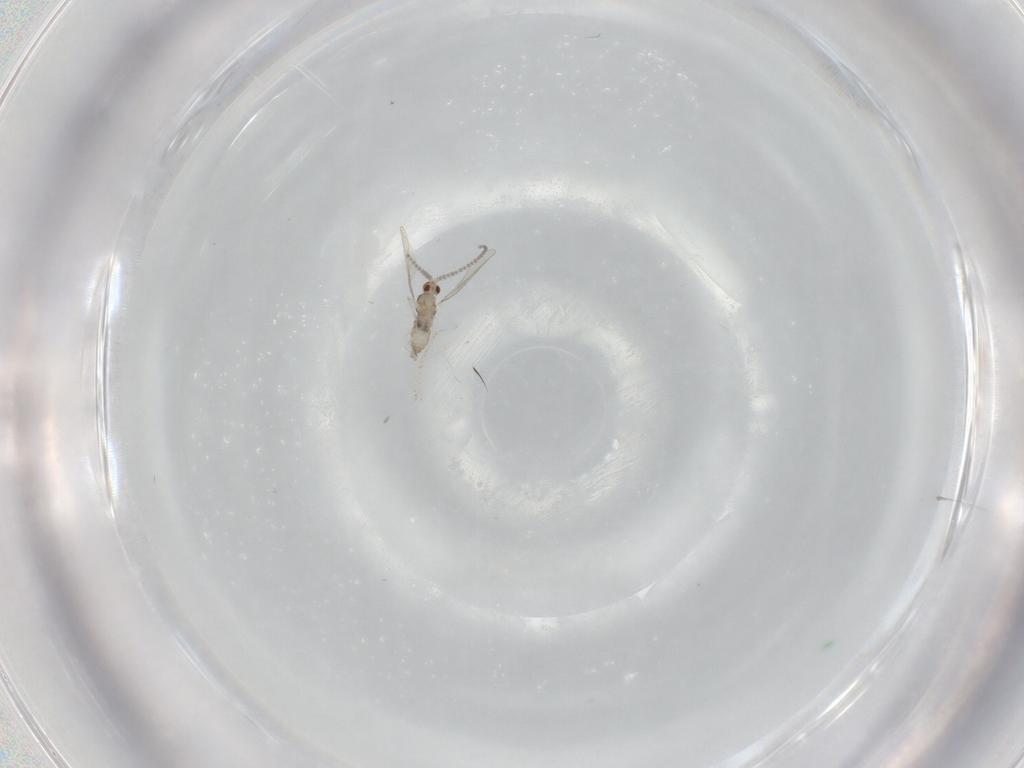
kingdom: Animalia
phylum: Arthropoda
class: Insecta
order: Diptera
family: Cecidomyiidae
